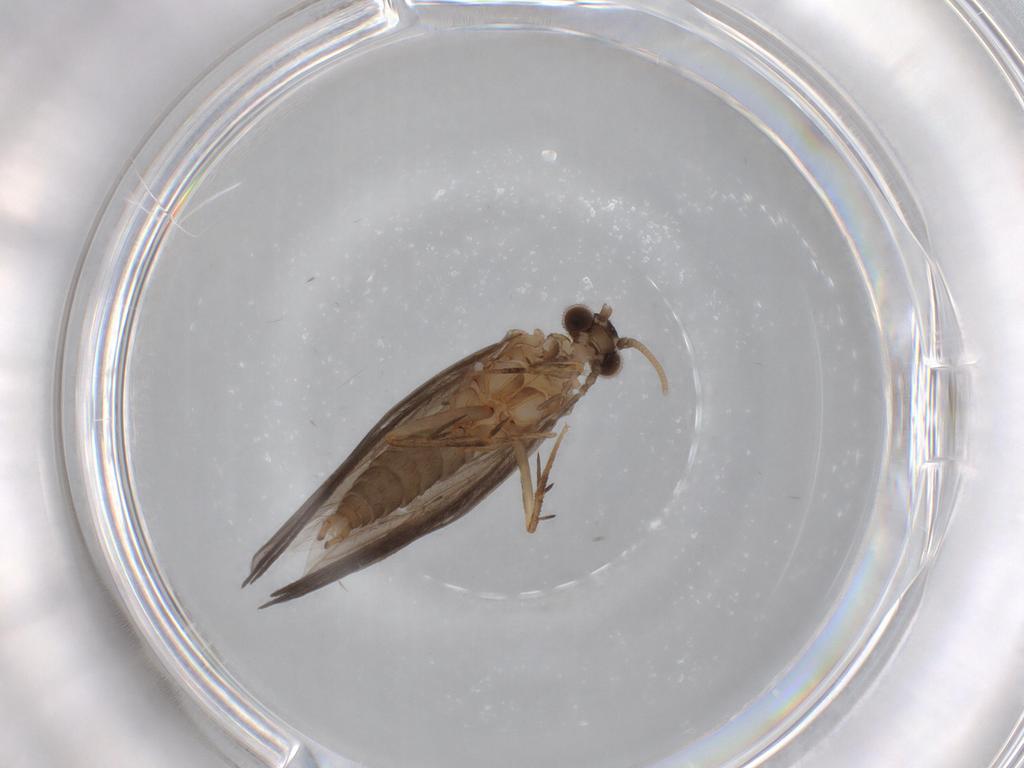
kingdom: Animalia
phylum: Arthropoda
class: Insecta
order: Trichoptera
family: Philopotamidae
